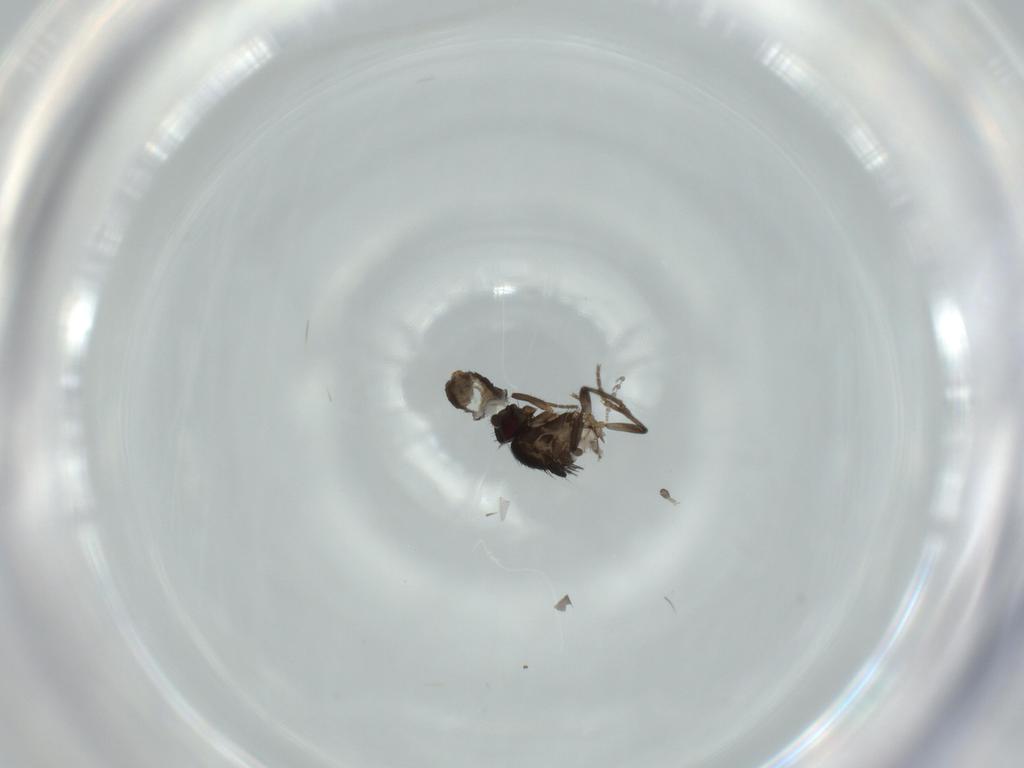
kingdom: Animalia
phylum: Arthropoda
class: Insecta
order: Diptera
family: Sphaeroceridae
